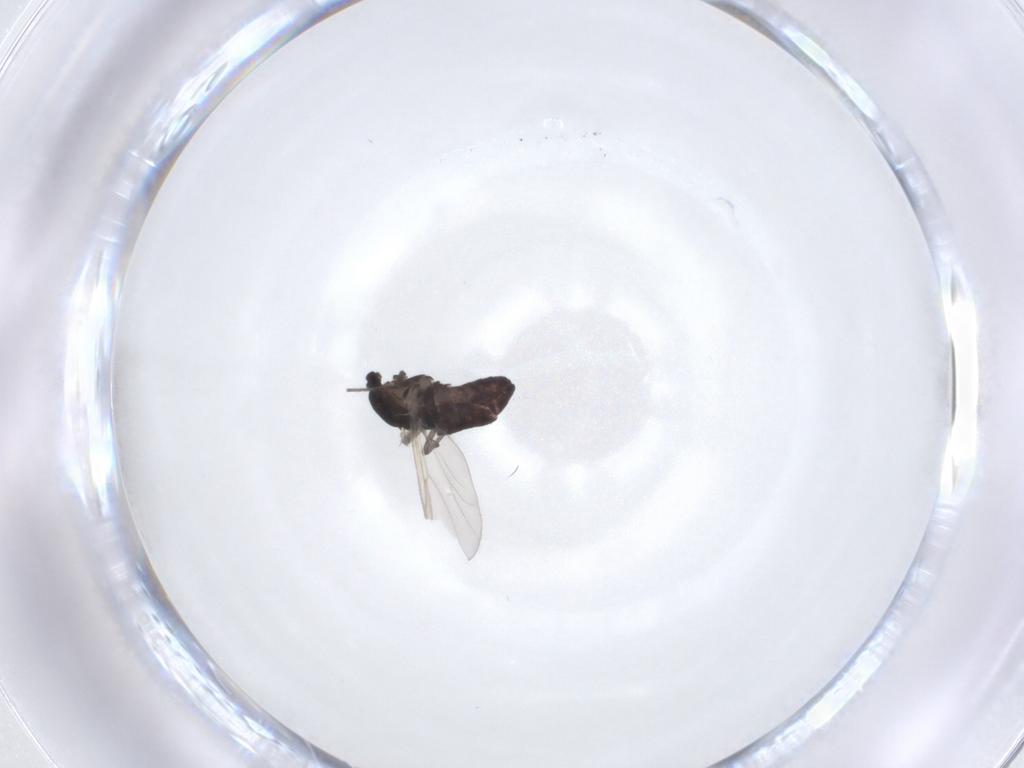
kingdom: Animalia
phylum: Arthropoda
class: Insecta
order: Diptera
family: Chironomidae
